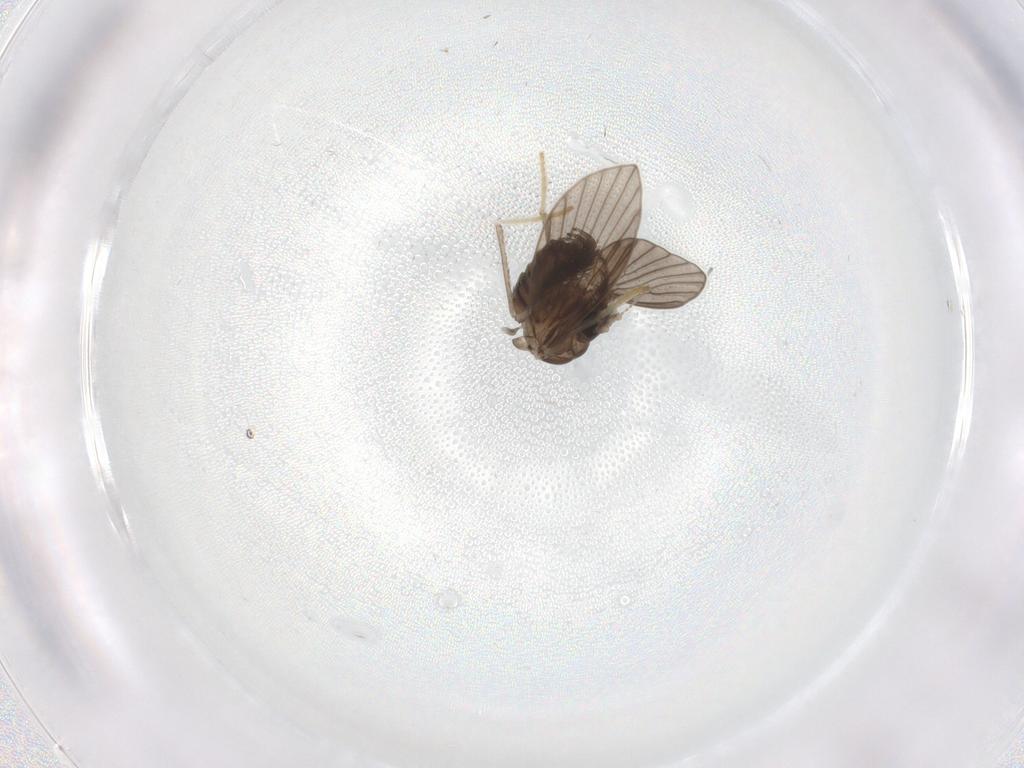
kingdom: Animalia
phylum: Arthropoda
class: Insecta
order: Diptera
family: Psychodidae
